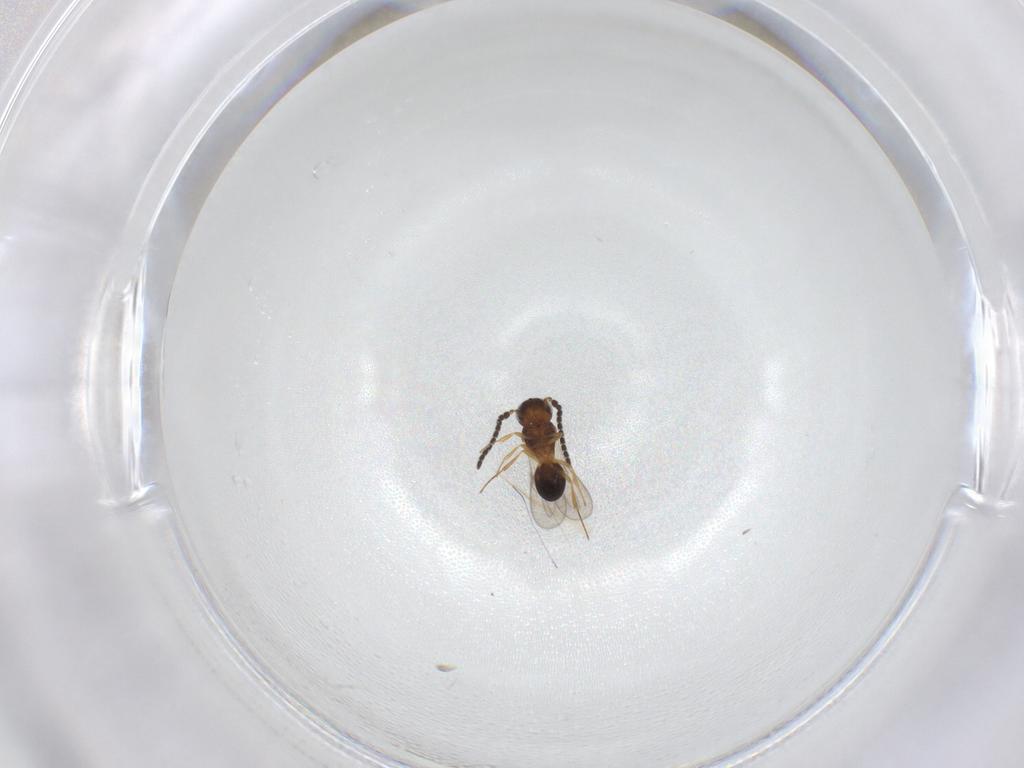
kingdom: Animalia
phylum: Arthropoda
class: Insecta
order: Hymenoptera
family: Scelionidae
